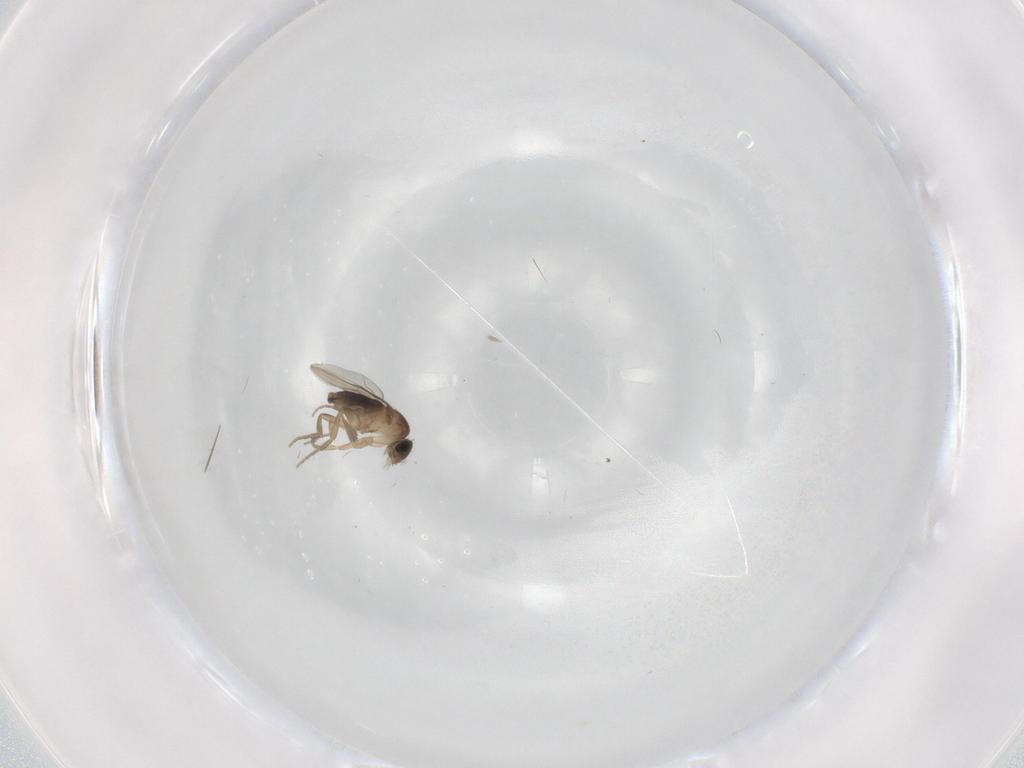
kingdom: Animalia
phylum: Arthropoda
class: Insecta
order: Diptera
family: Phoridae
